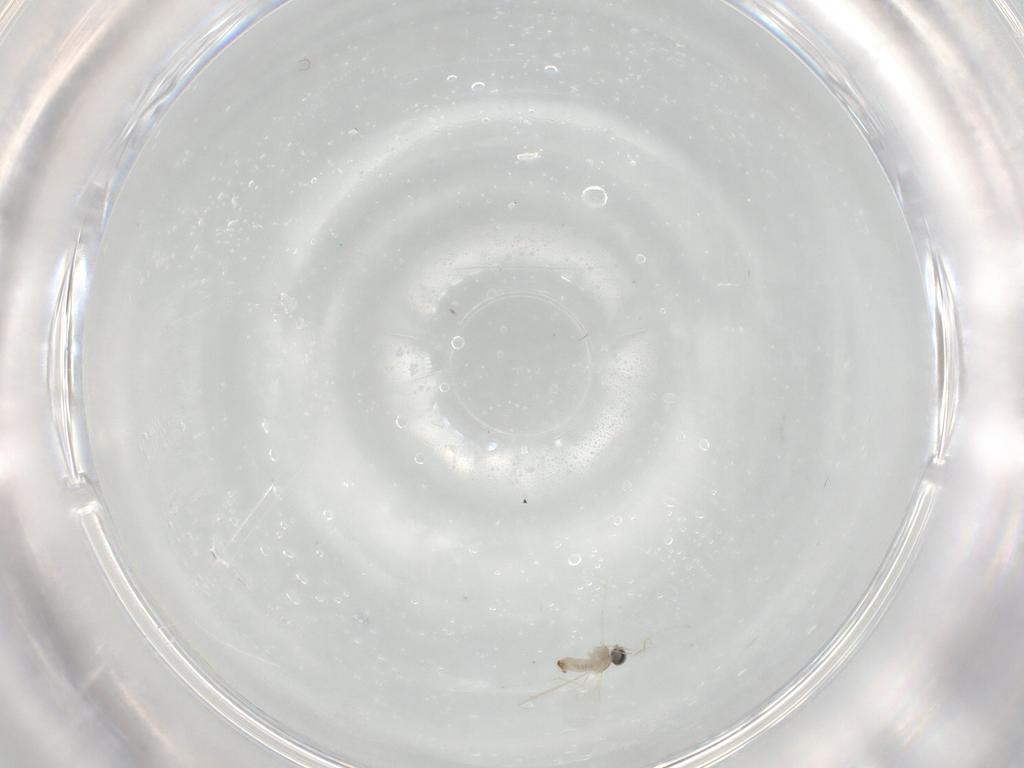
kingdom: Animalia
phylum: Arthropoda
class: Insecta
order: Diptera
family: Cecidomyiidae
